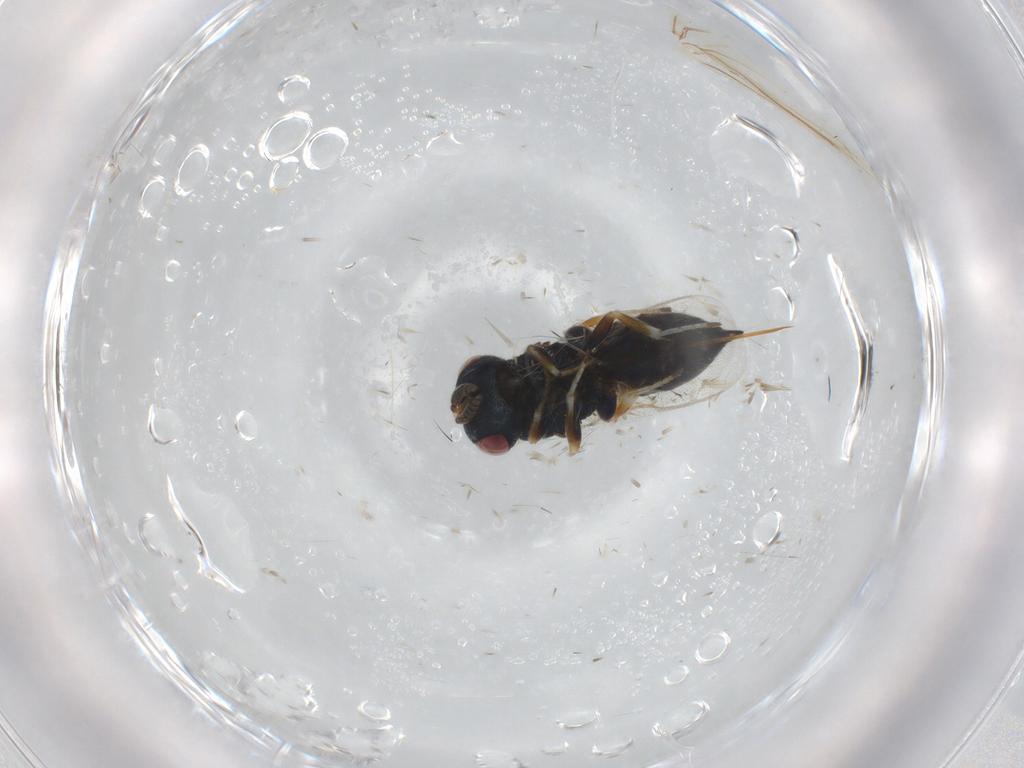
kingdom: Animalia
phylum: Arthropoda
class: Insecta
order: Hymenoptera
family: Pteromalidae
